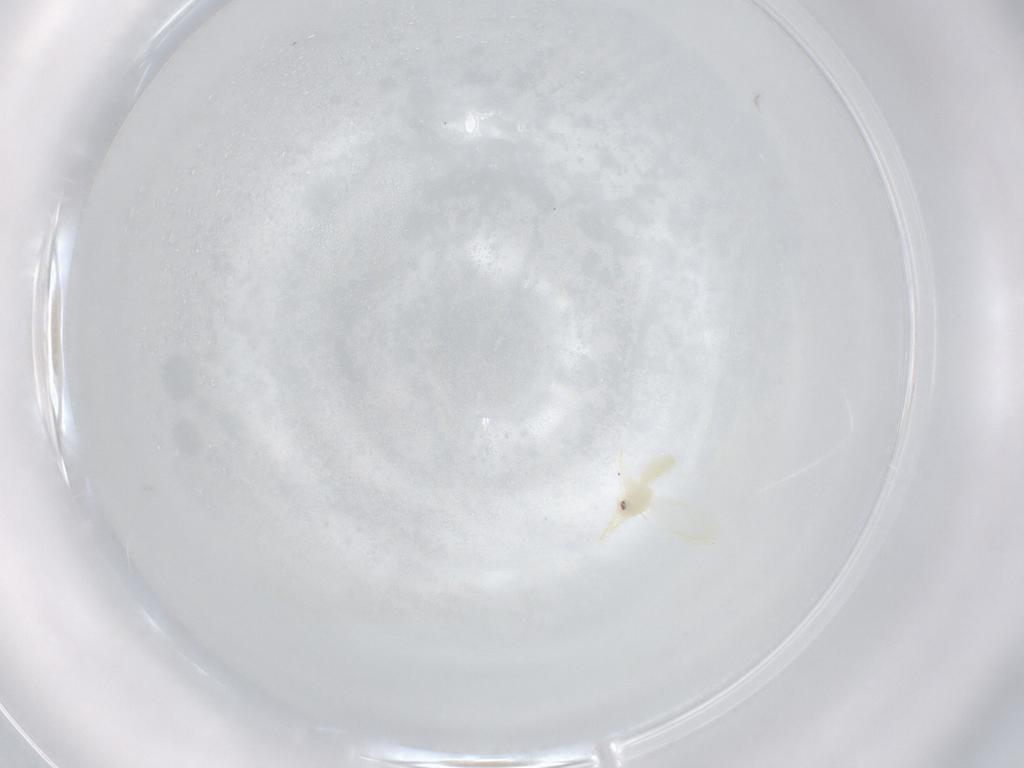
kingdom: Animalia
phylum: Arthropoda
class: Insecta
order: Hemiptera
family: Aleyrodidae
